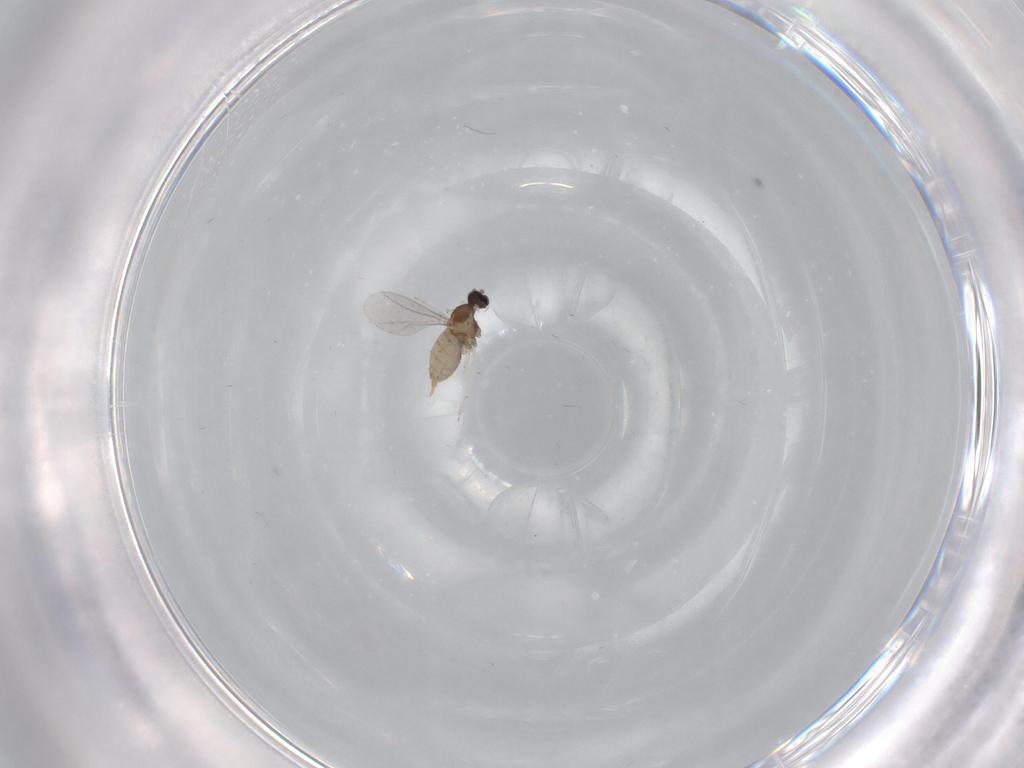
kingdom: Animalia
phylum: Arthropoda
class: Insecta
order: Diptera
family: Cecidomyiidae
